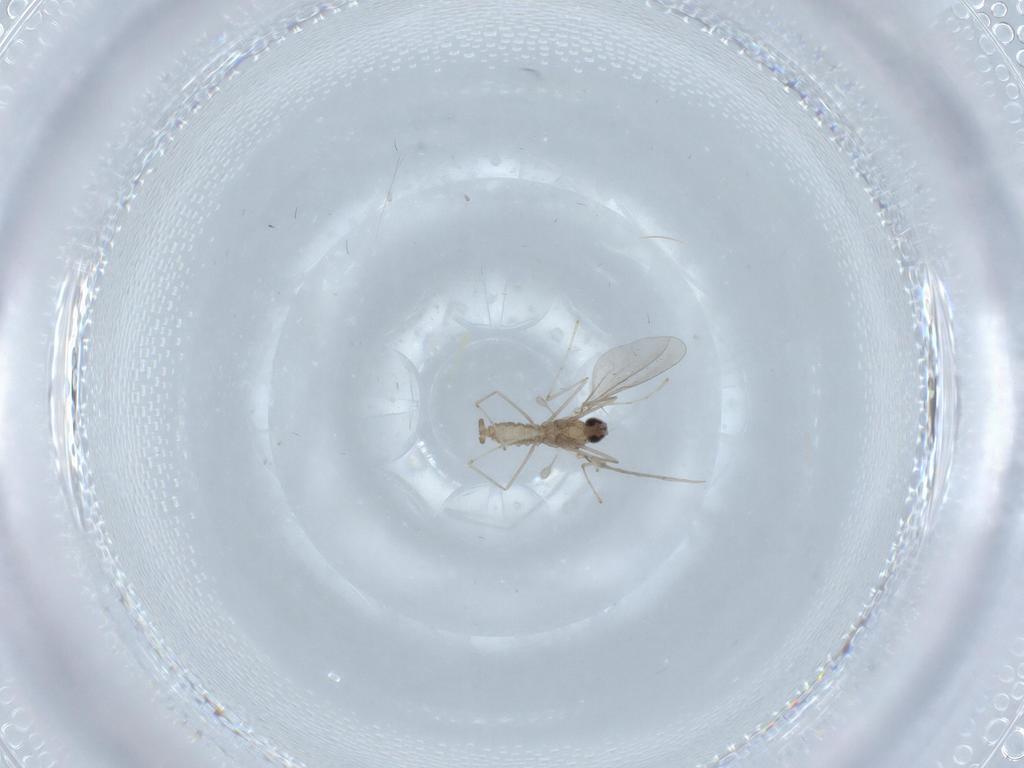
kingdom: Animalia
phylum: Arthropoda
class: Insecta
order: Diptera
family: Cecidomyiidae
